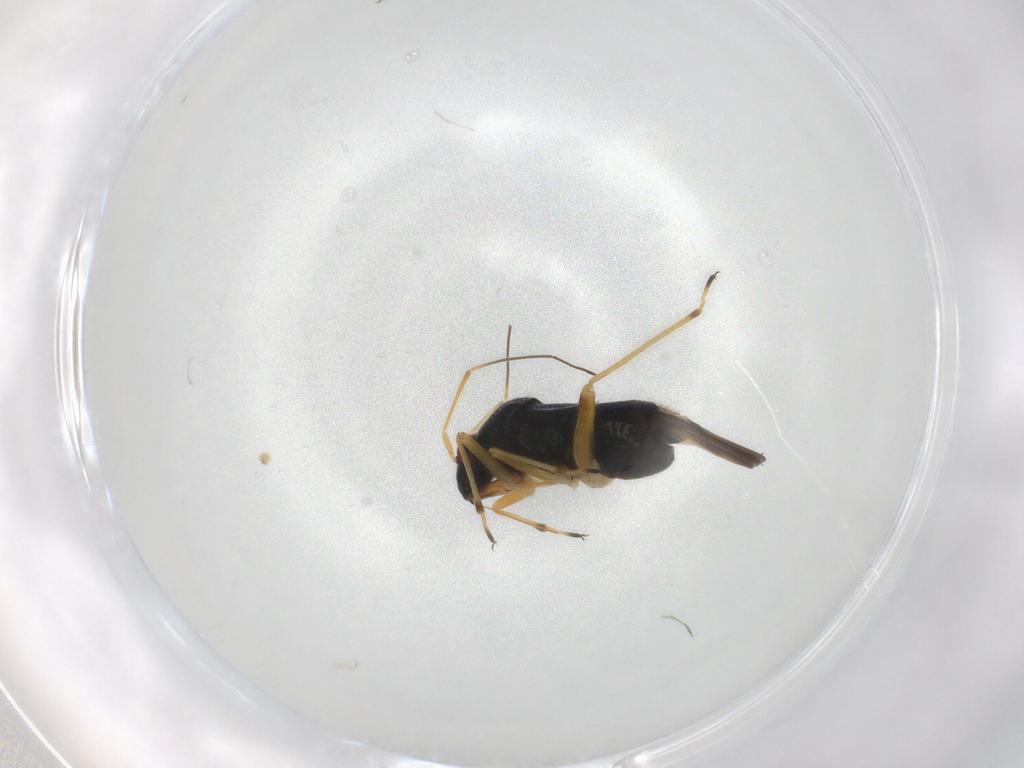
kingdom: Animalia
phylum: Arthropoda
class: Insecta
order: Hemiptera
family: Miridae
